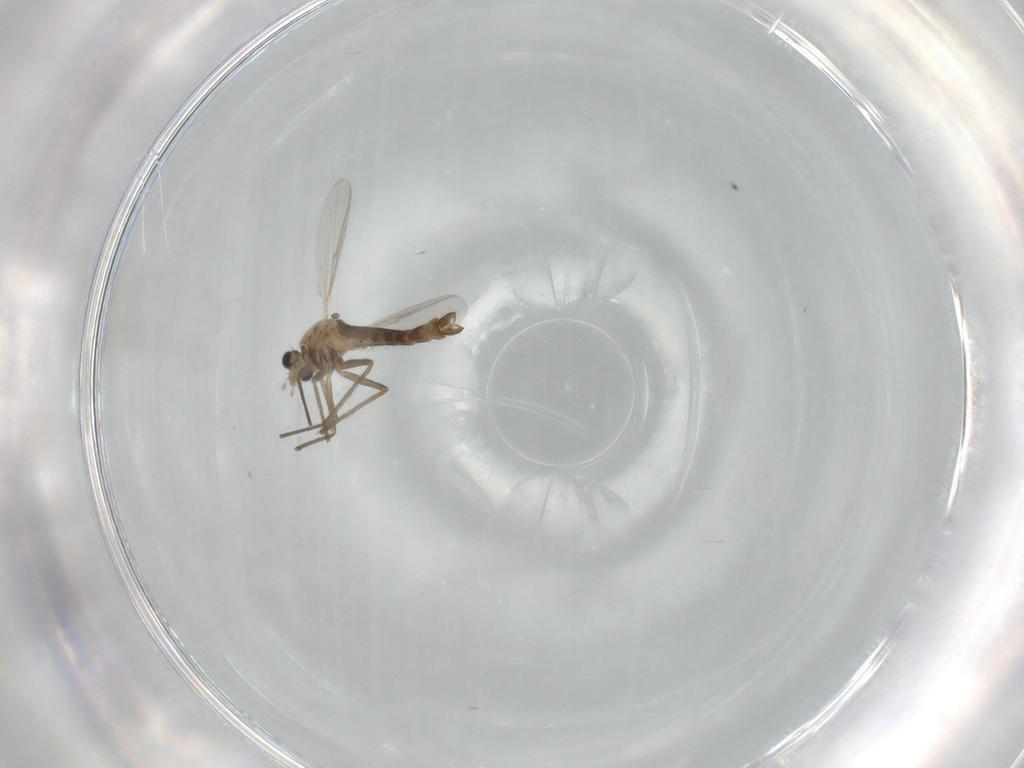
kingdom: Animalia
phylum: Arthropoda
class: Insecta
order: Diptera
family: Chironomidae
